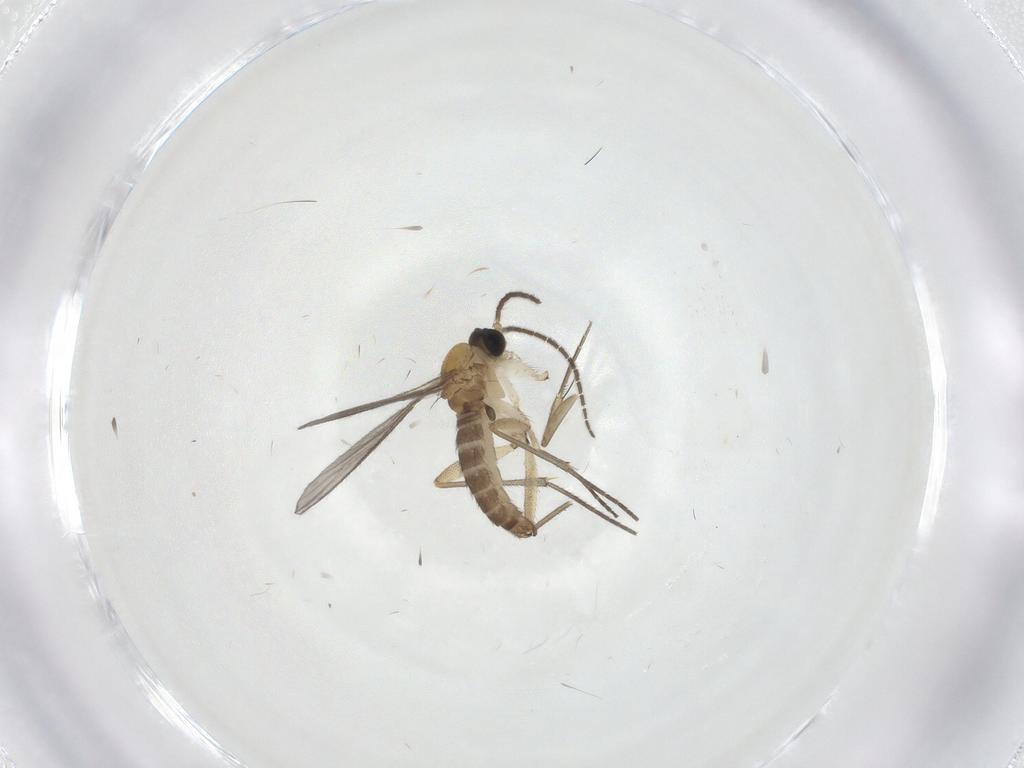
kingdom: Animalia
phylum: Arthropoda
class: Insecta
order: Diptera
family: Phoridae
